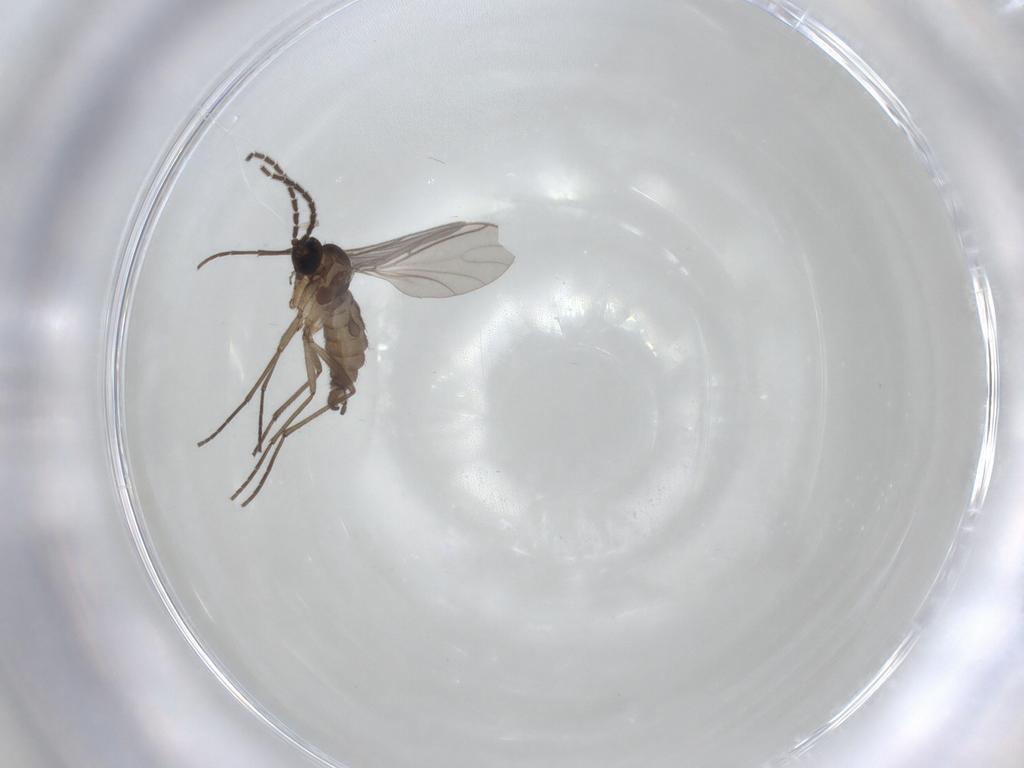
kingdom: Animalia
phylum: Arthropoda
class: Insecta
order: Diptera
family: Sciaridae
